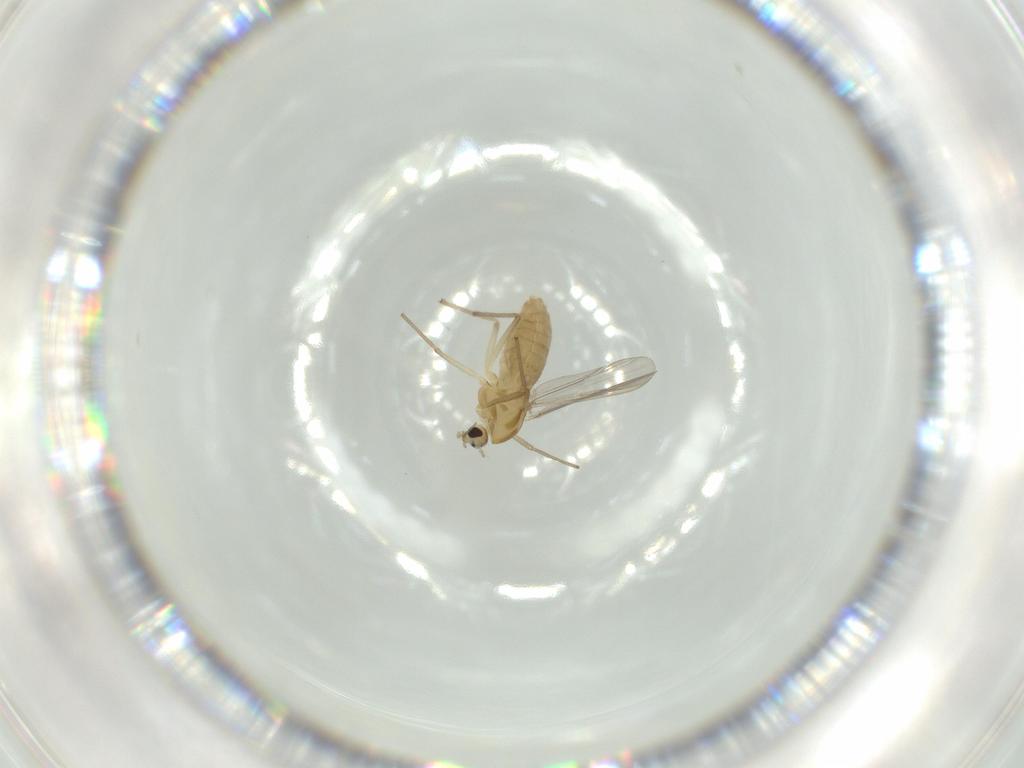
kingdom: Animalia
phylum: Arthropoda
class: Insecta
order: Diptera
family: Chironomidae
